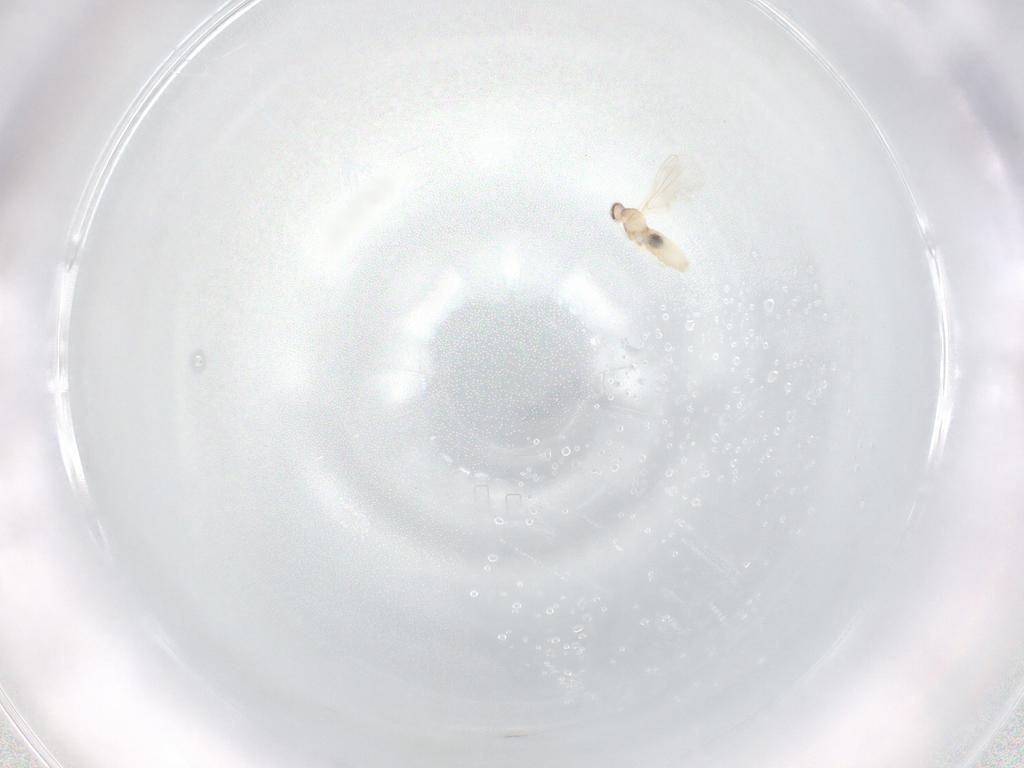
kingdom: Animalia
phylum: Arthropoda
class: Insecta
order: Diptera
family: Cecidomyiidae
